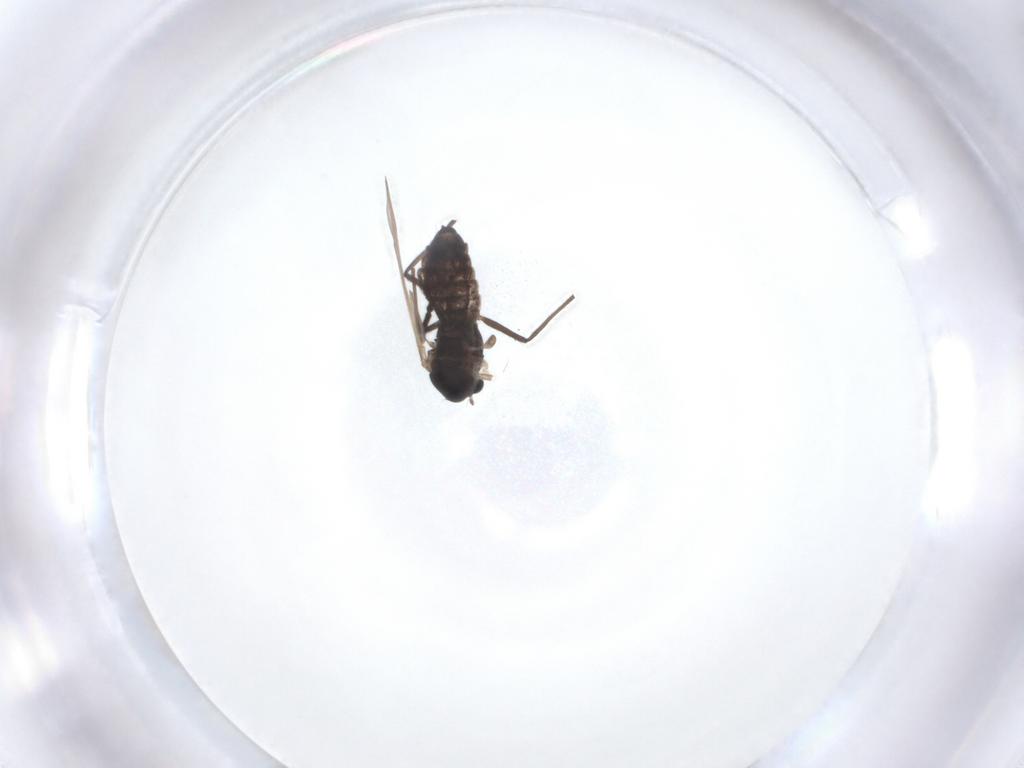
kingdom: Animalia
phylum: Arthropoda
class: Insecta
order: Diptera
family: Chironomidae
